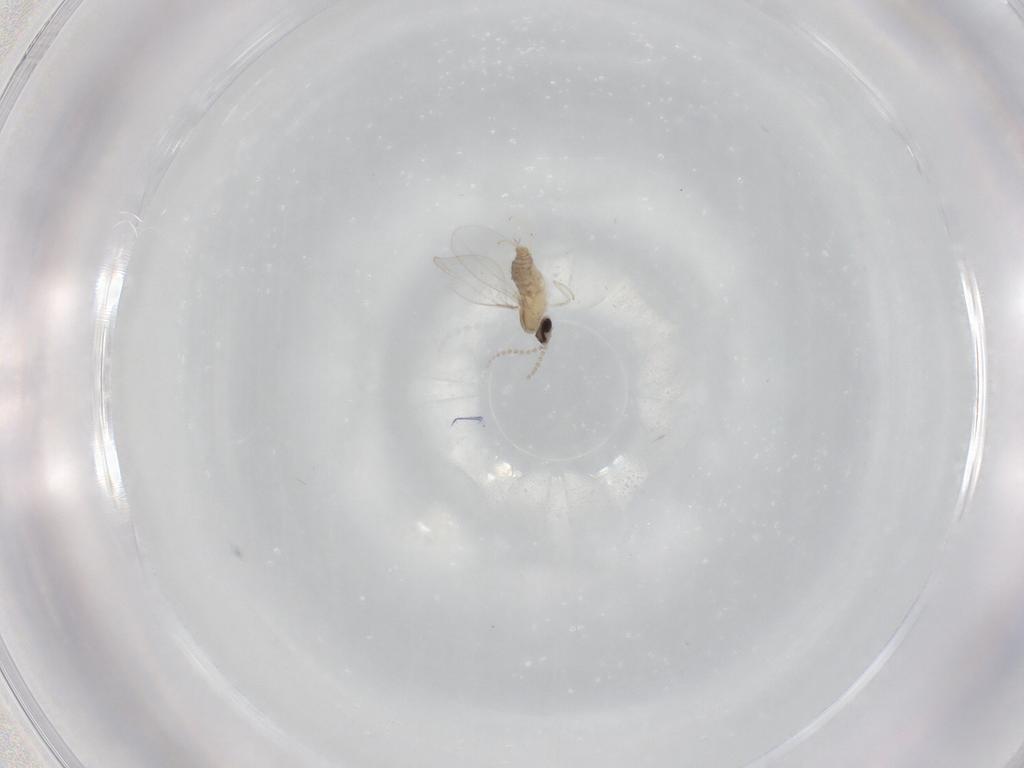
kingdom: Animalia
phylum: Arthropoda
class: Insecta
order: Diptera
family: Cecidomyiidae
